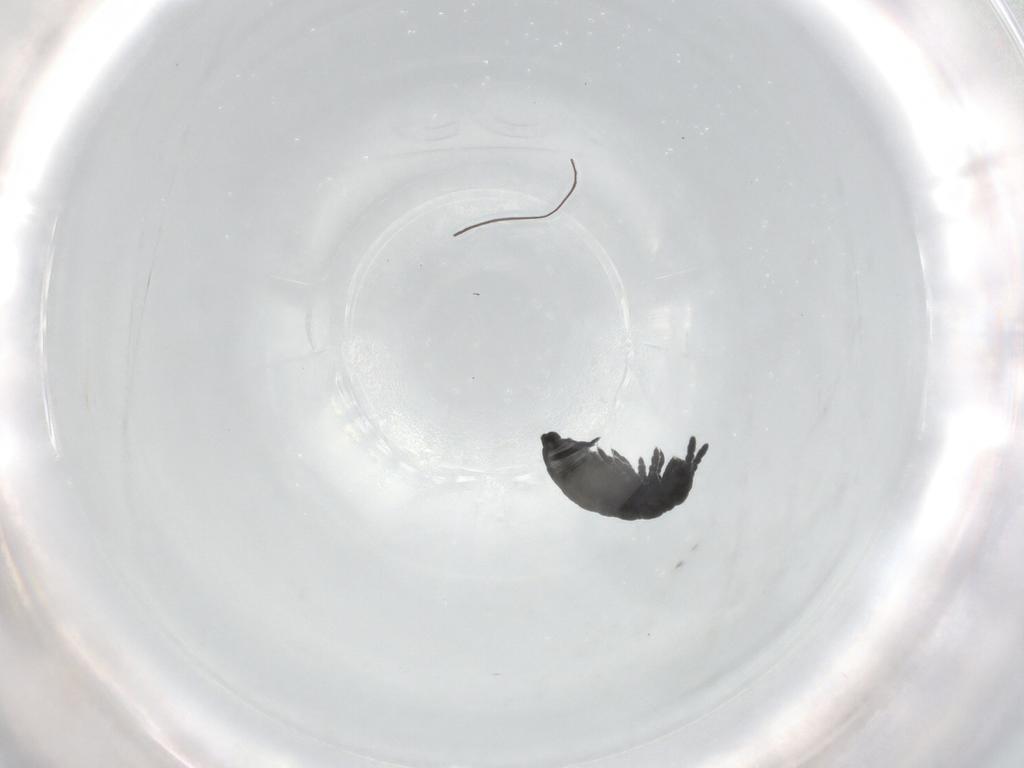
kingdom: Animalia
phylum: Arthropoda
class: Collembola
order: Poduromorpha
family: Hypogastruridae
